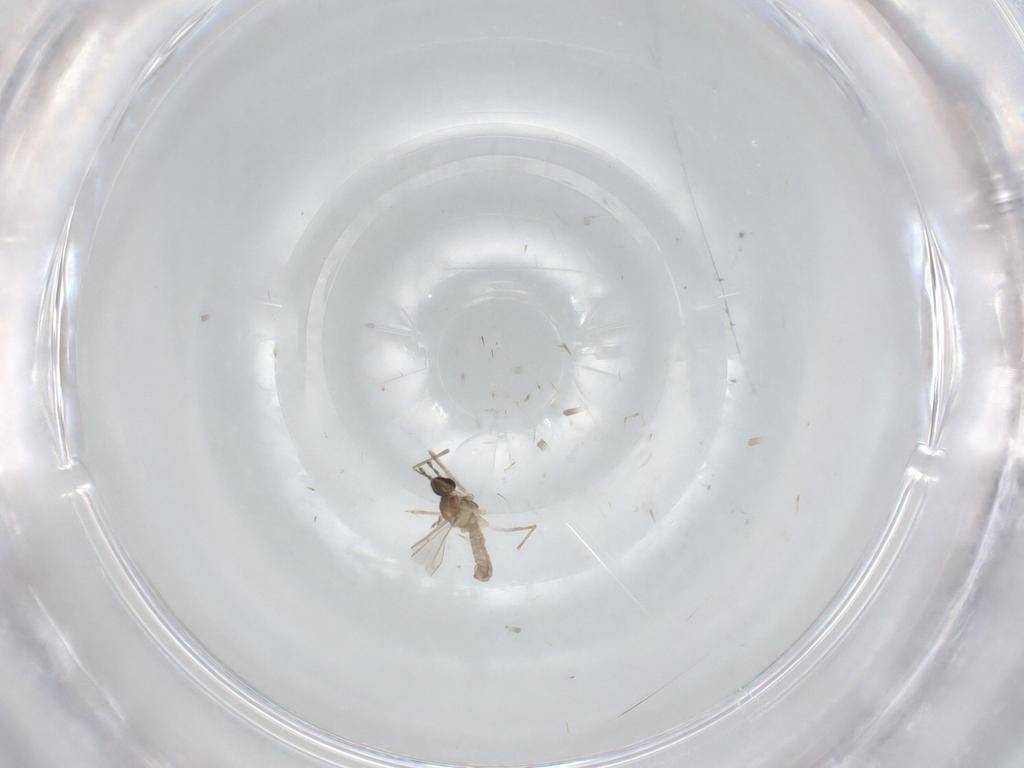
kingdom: Animalia
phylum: Arthropoda
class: Insecta
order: Diptera
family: Cecidomyiidae
